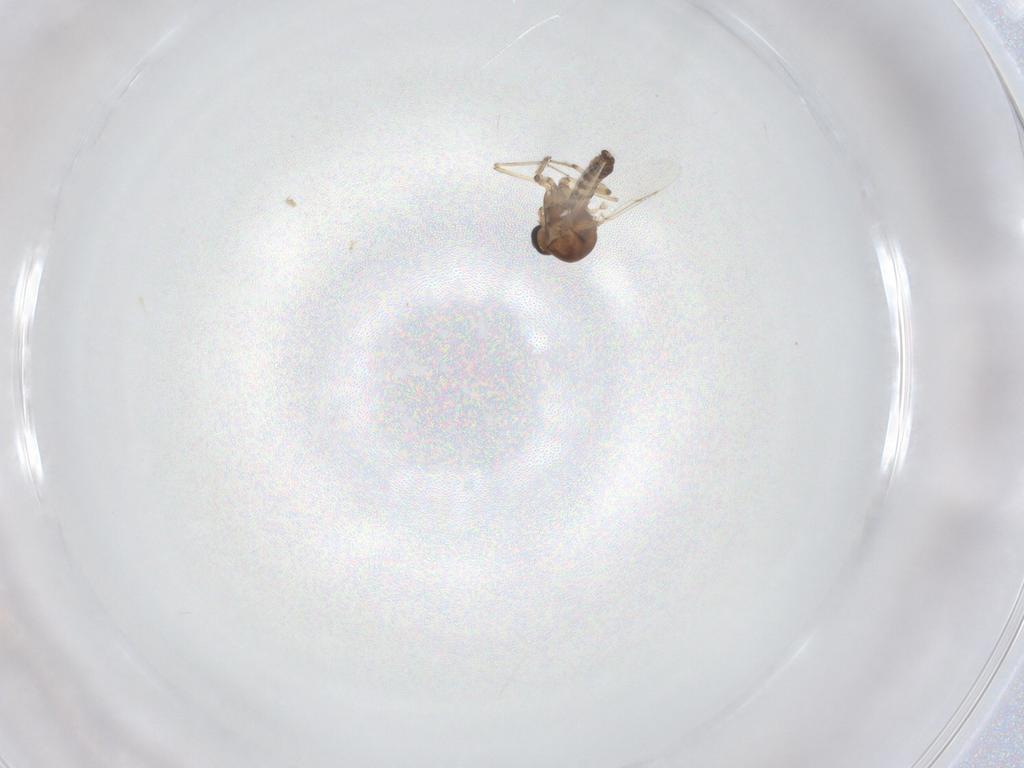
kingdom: Animalia
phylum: Arthropoda
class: Insecta
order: Diptera
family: Ceratopogonidae
